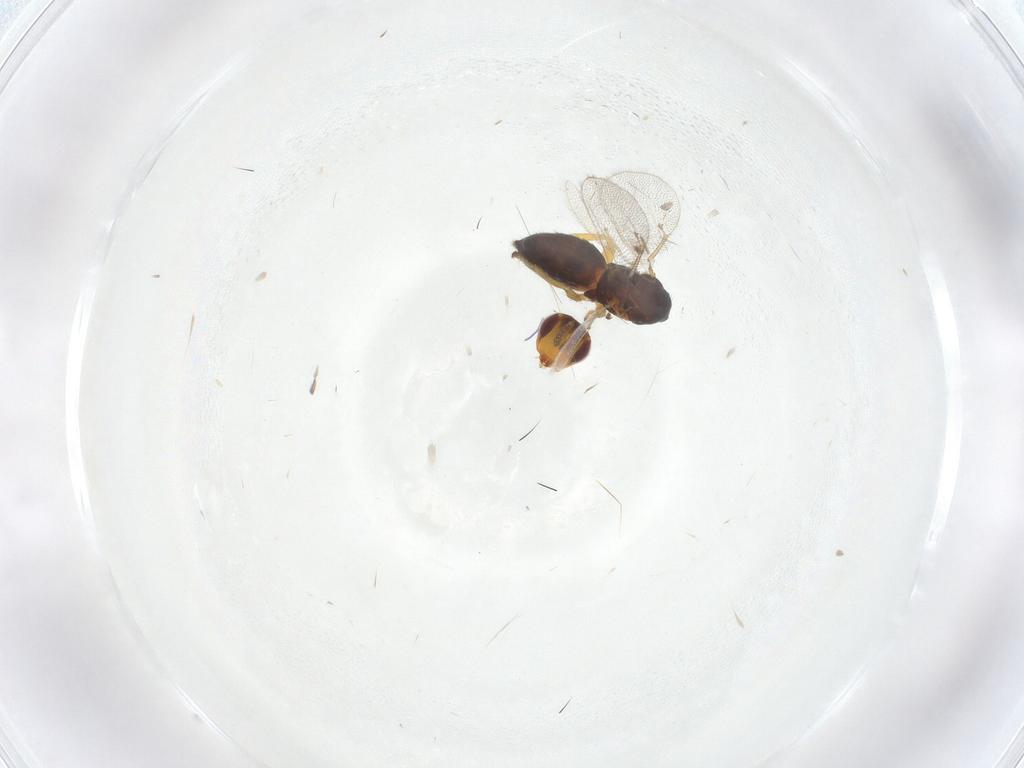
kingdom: Animalia
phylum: Arthropoda
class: Insecta
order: Hymenoptera
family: Eulophidae
